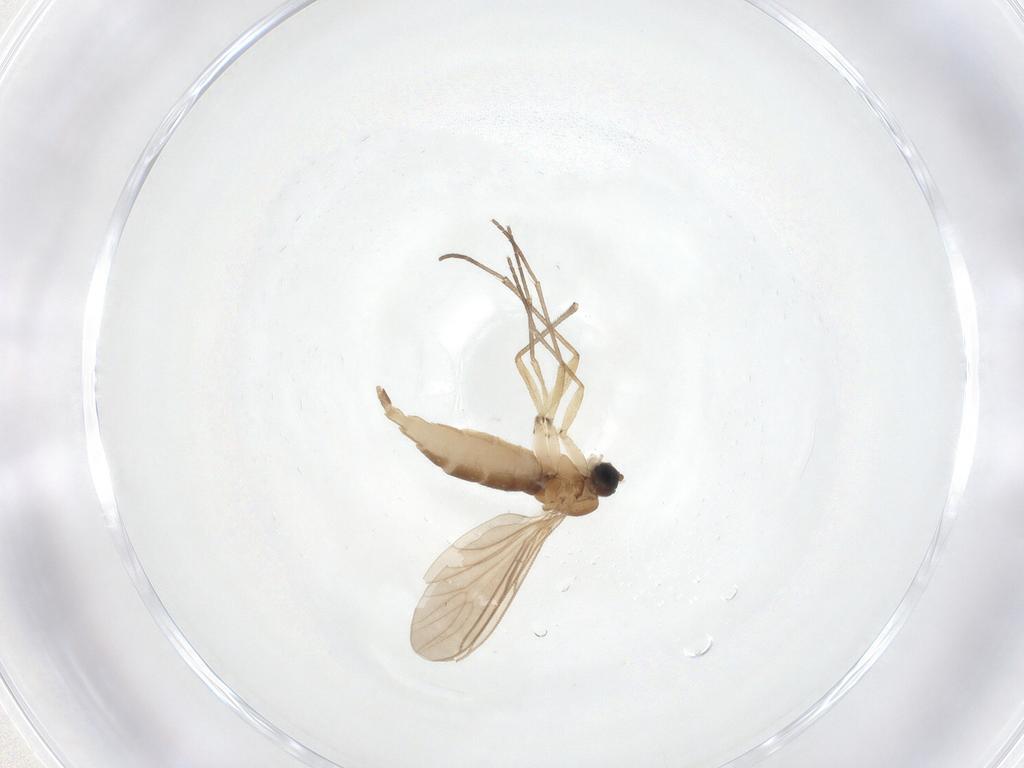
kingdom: Animalia
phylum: Arthropoda
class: Insecta
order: Diptera
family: Sciaridae
